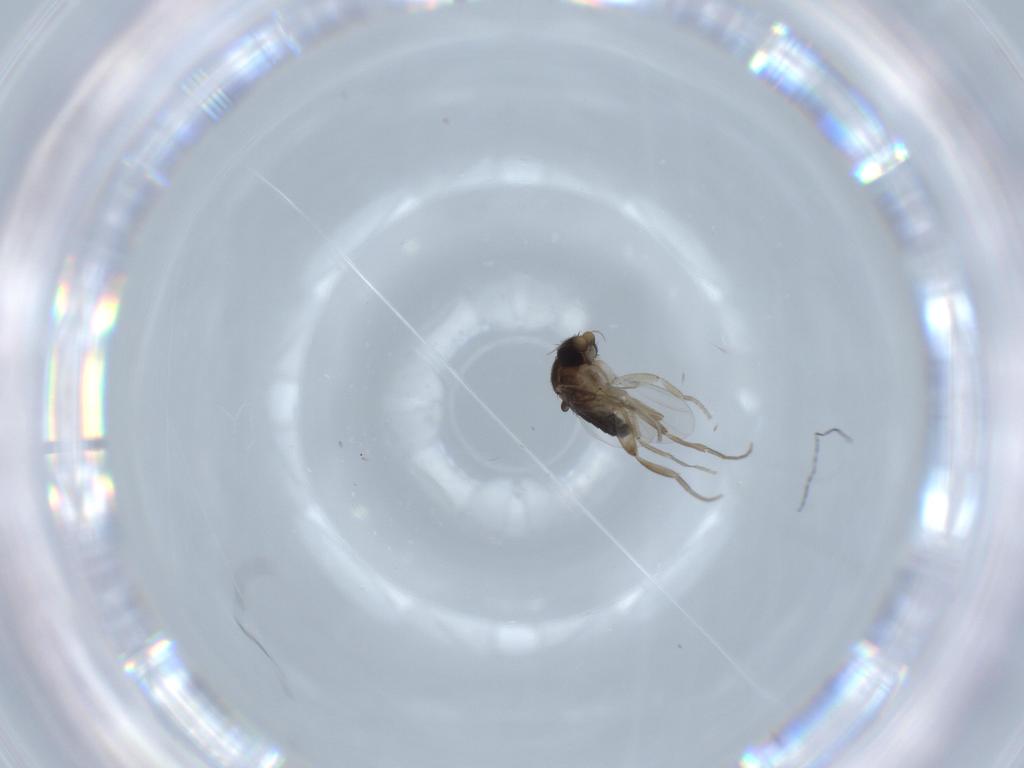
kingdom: Animalia
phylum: Arthropoda
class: Insecta
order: Diptera
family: Phoridae
